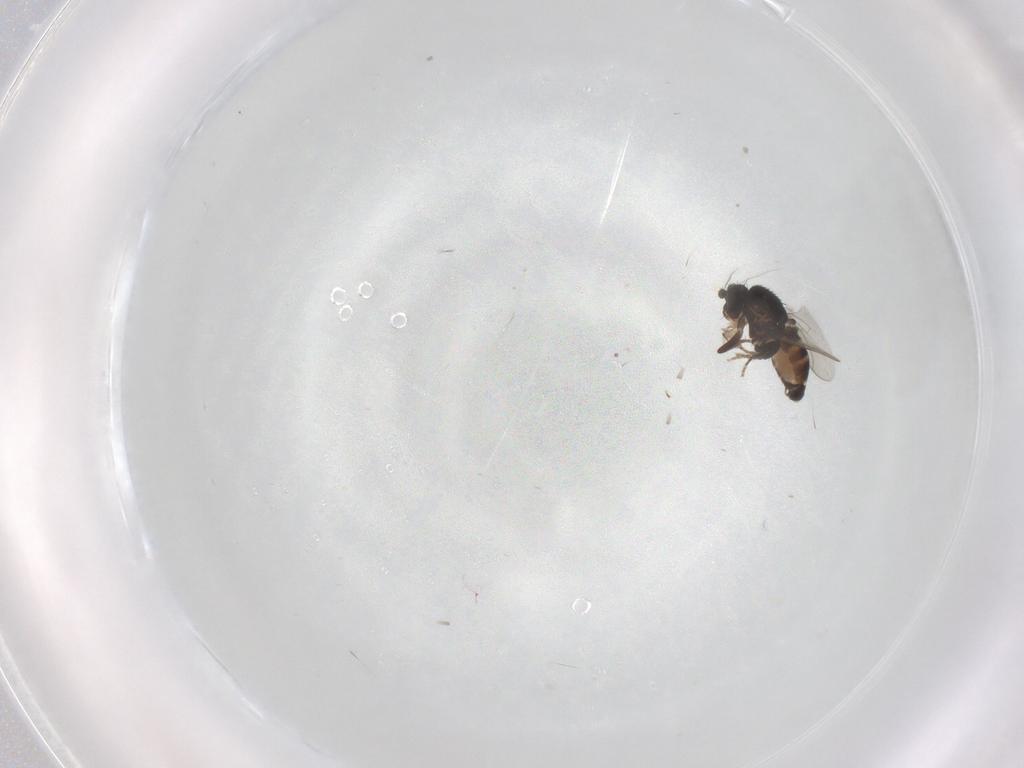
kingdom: Animalia
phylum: Arthropoda
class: Insecta
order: Diptera
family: Sphaeroceridae
